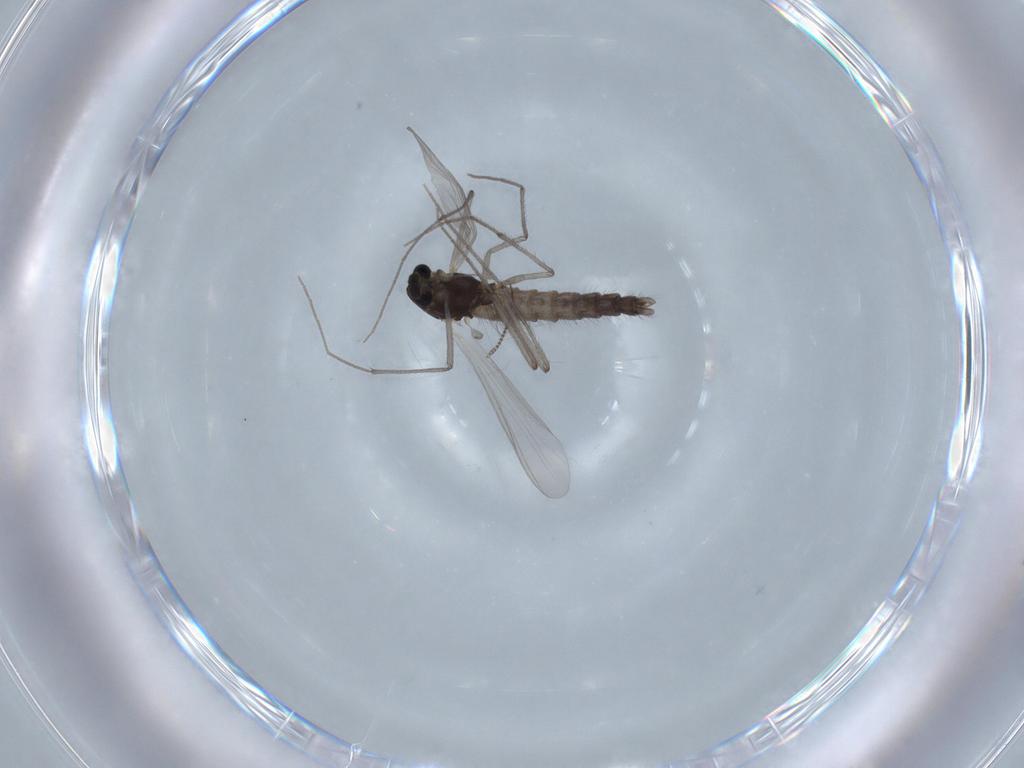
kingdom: Animalia
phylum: Arthropoda
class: Insecta
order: Diptera
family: Chironomidae
